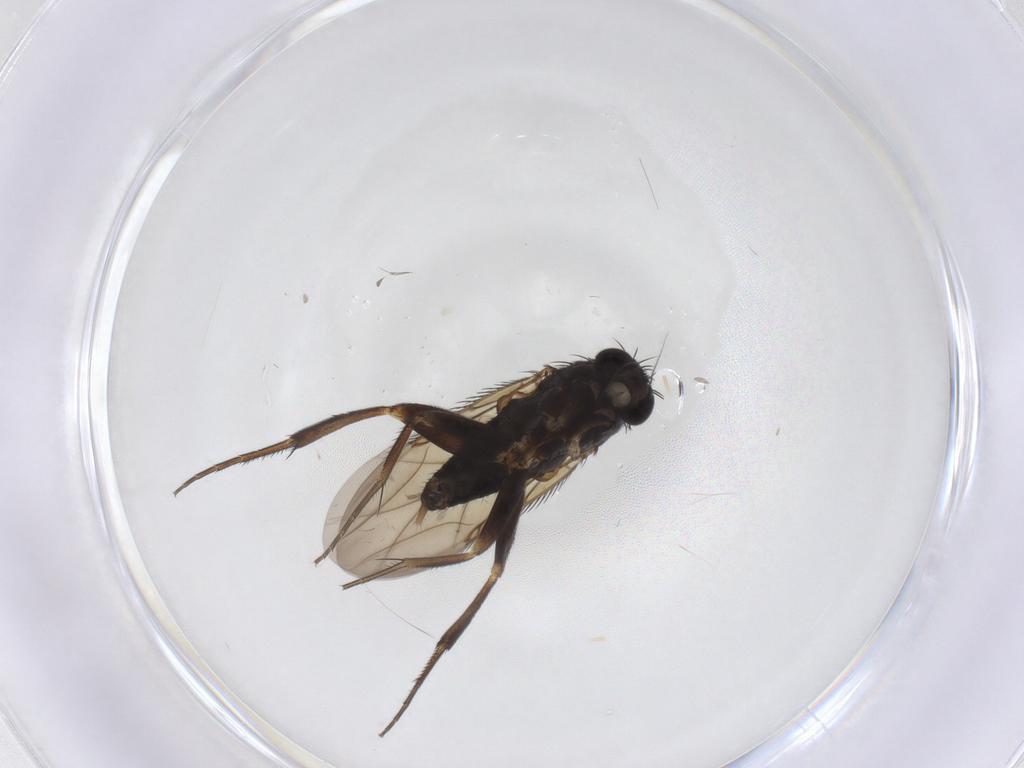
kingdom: Animalia
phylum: Arthropoda
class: Insecta
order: Diptera
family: Phoridae
